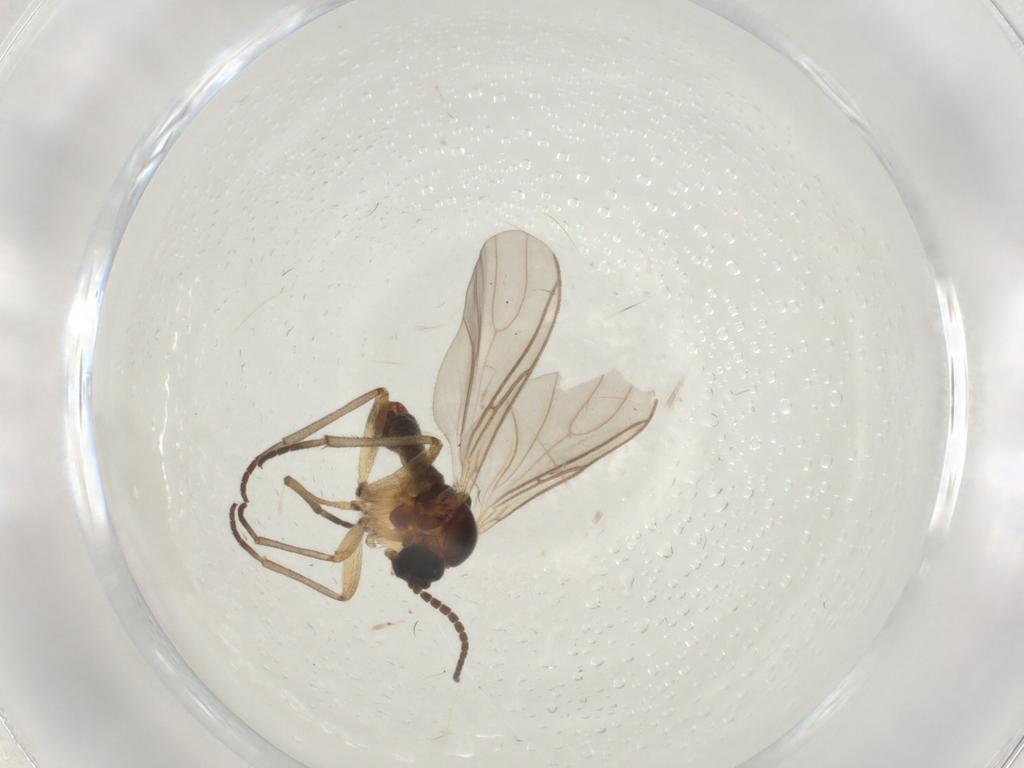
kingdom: Animalia
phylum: Arthropoda
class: Insecta
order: Diptera
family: Sciaridae
